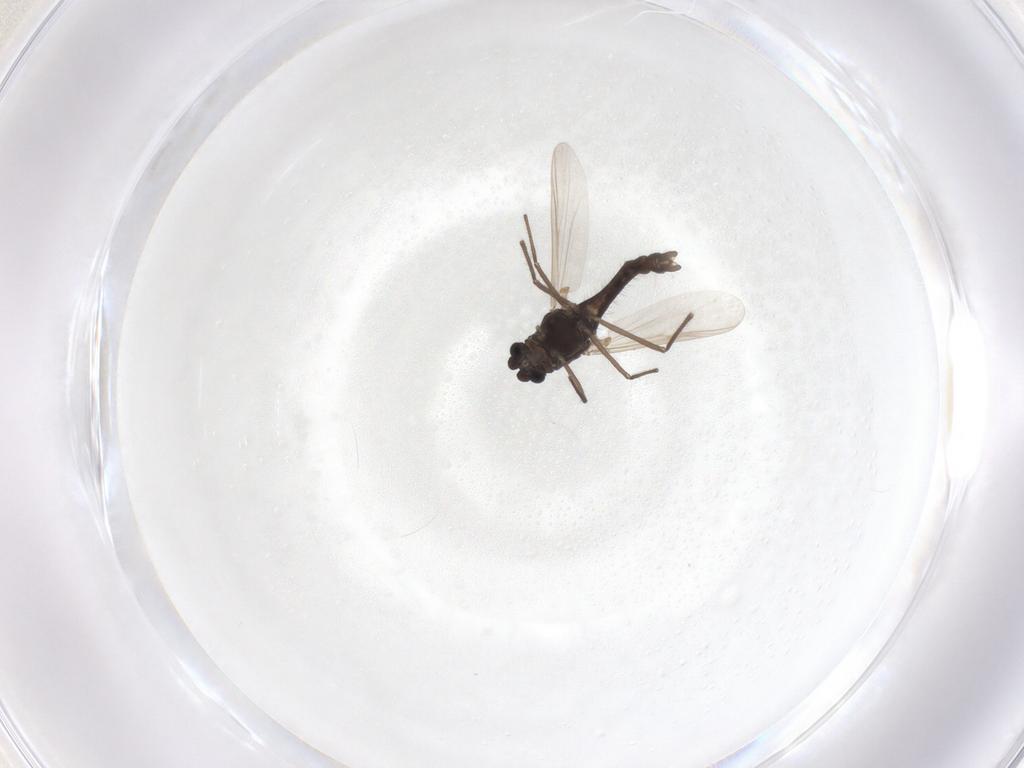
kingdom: Animalia
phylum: Arthropoda
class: Insecta
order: Diptera
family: Chironomidae
